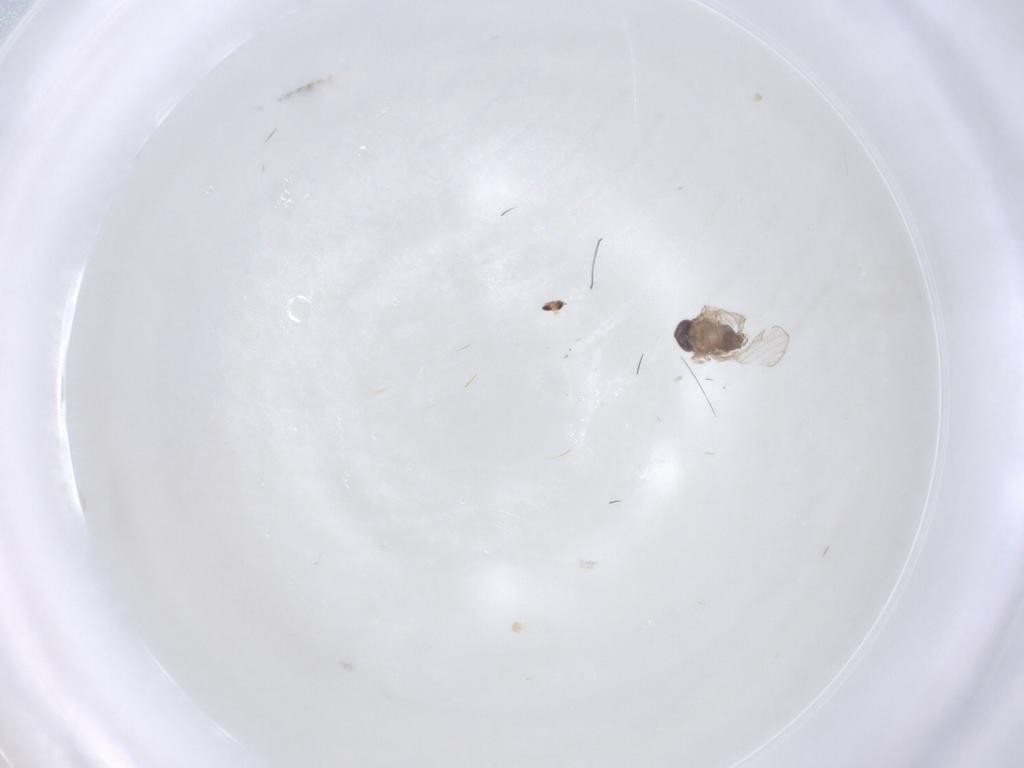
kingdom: Animalia
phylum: Arthropoda
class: Insecta
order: Diptera
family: Psychodidae
